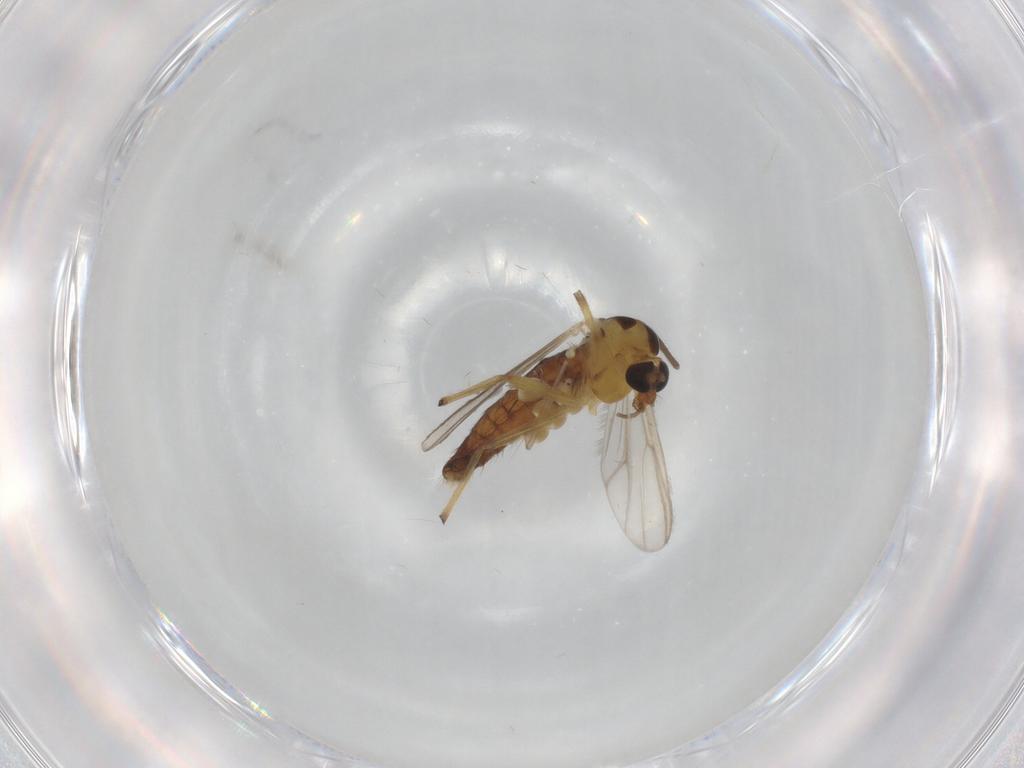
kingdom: Animalia
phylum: Arthropoda
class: Insecta
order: Diptera
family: Chironomidae
